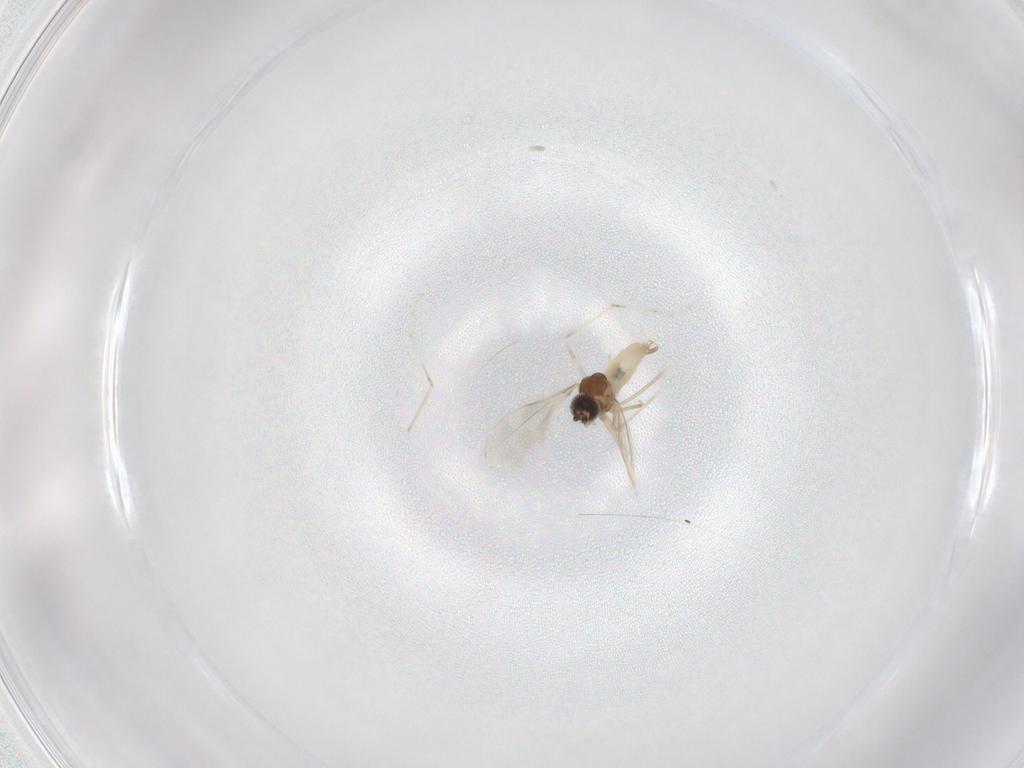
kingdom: Animalia
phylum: Arthropoda
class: Insecta
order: Diptera
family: Cecidomyiidae
